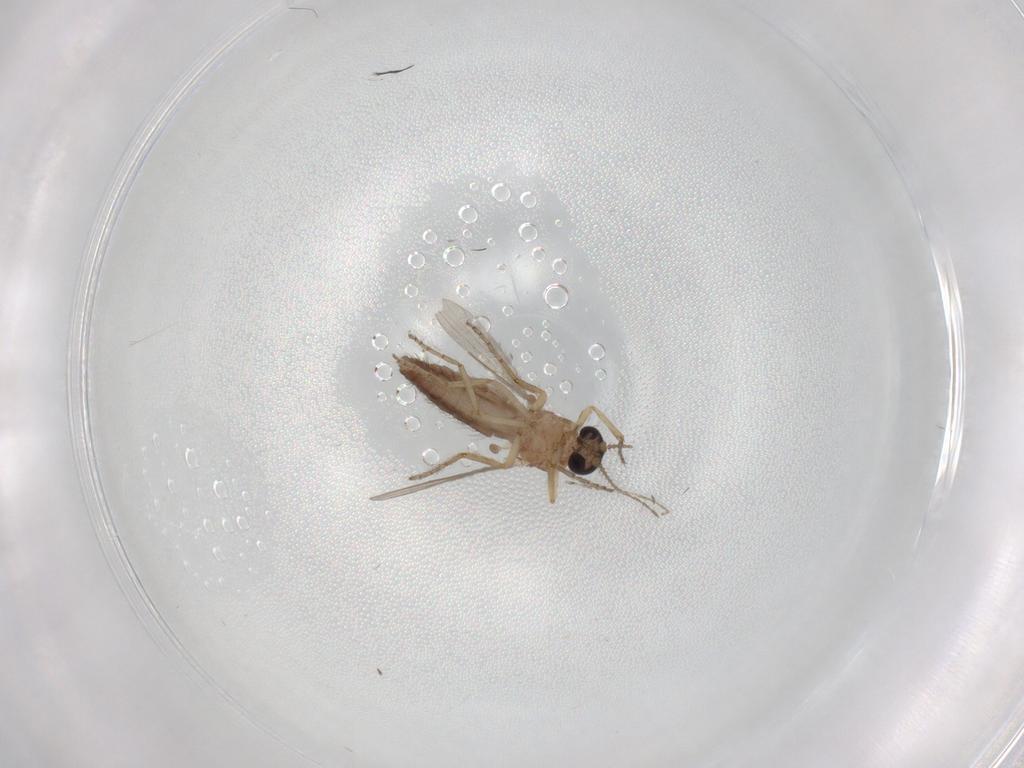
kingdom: Animalia
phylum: Arthropoda
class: Insecta
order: Diptera
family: Ceratopogonidae
